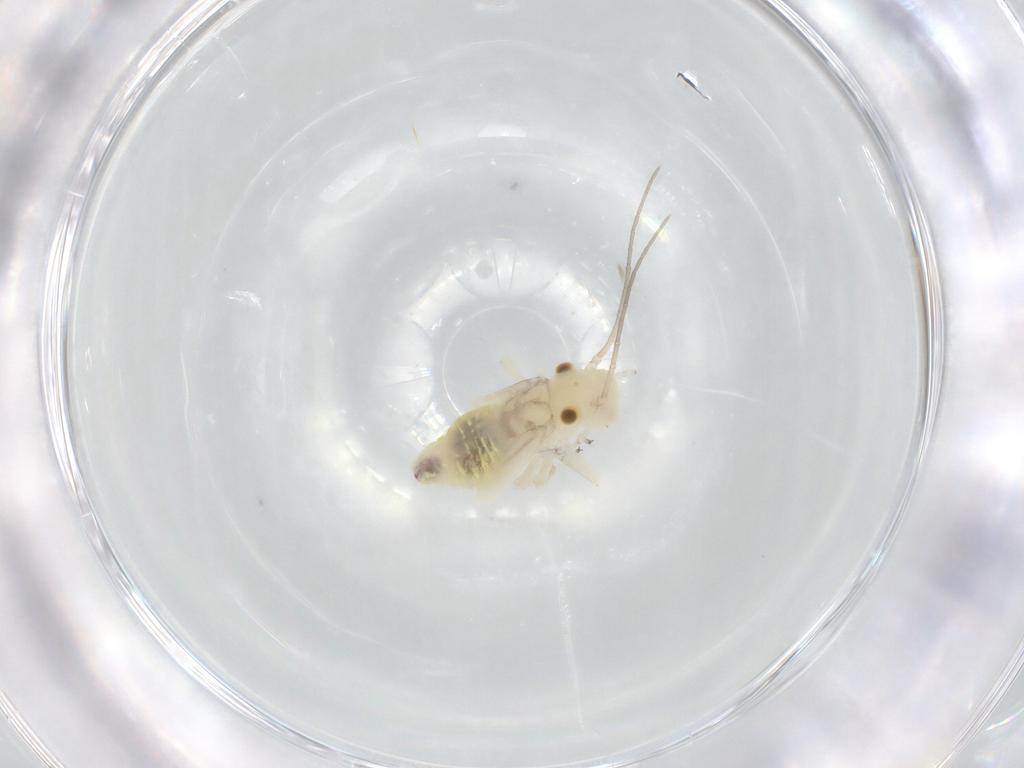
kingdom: Animalia
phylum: Arthropoda
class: Insecta
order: Psocodea
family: Caeciliusidae
